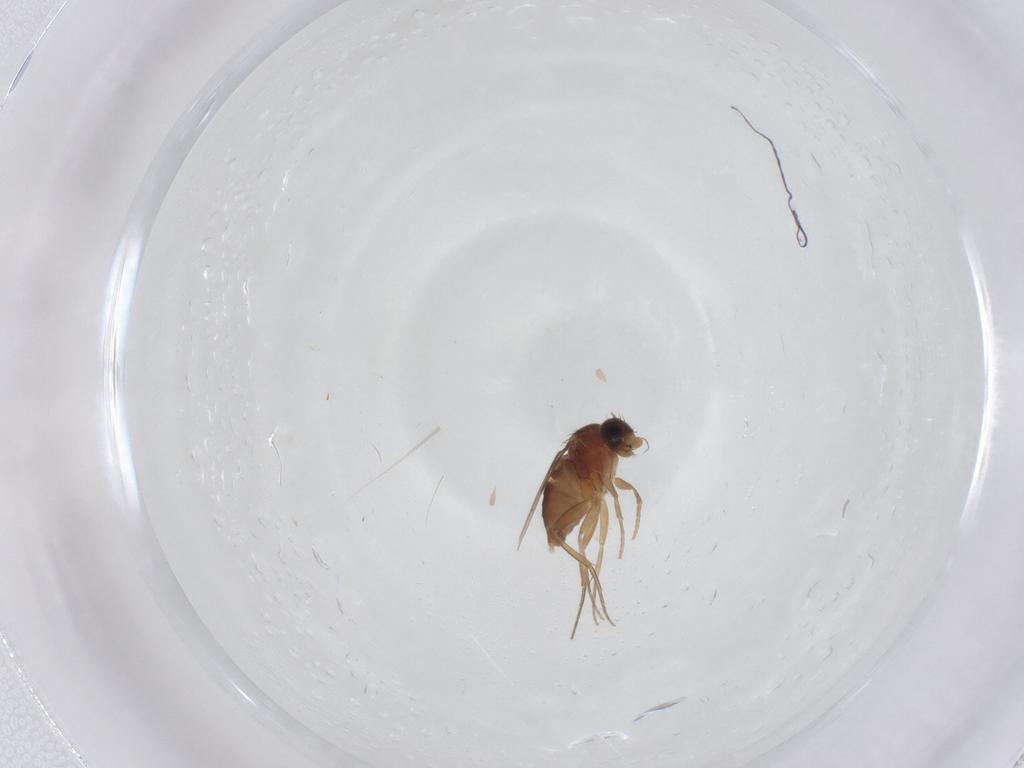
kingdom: Animalia
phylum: Arthropoda
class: Insecta
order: Diptera
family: Phoridae
